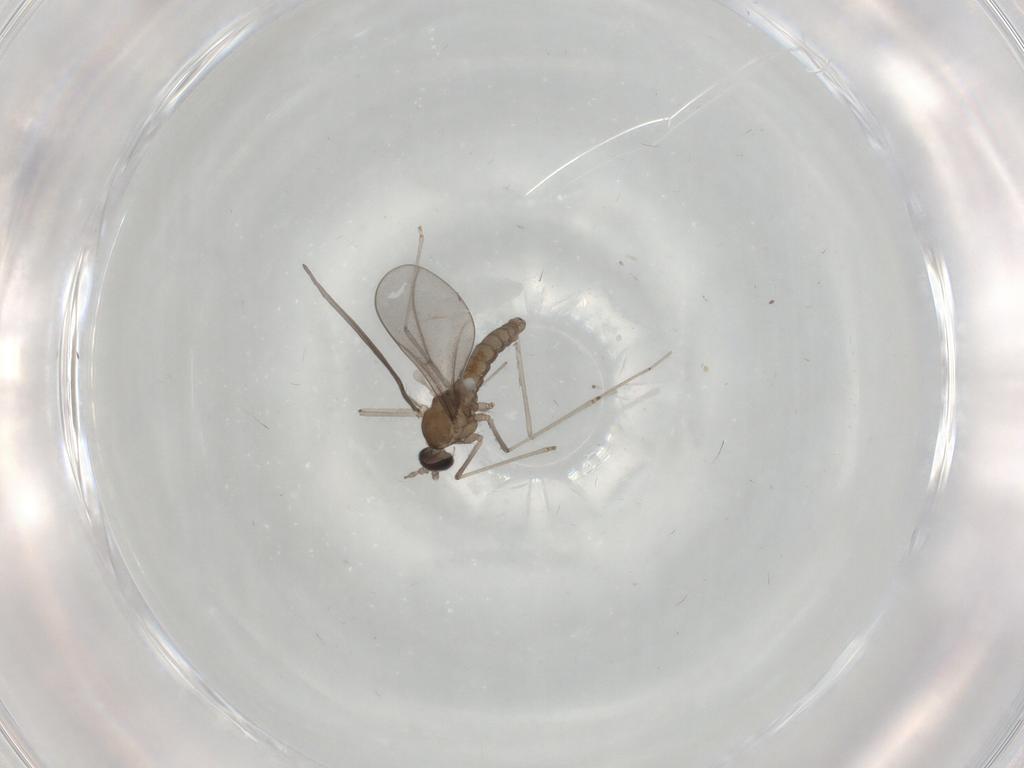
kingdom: Animalia
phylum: Arthropoda
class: Insecta
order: Diptera
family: Cecidomyiidae
